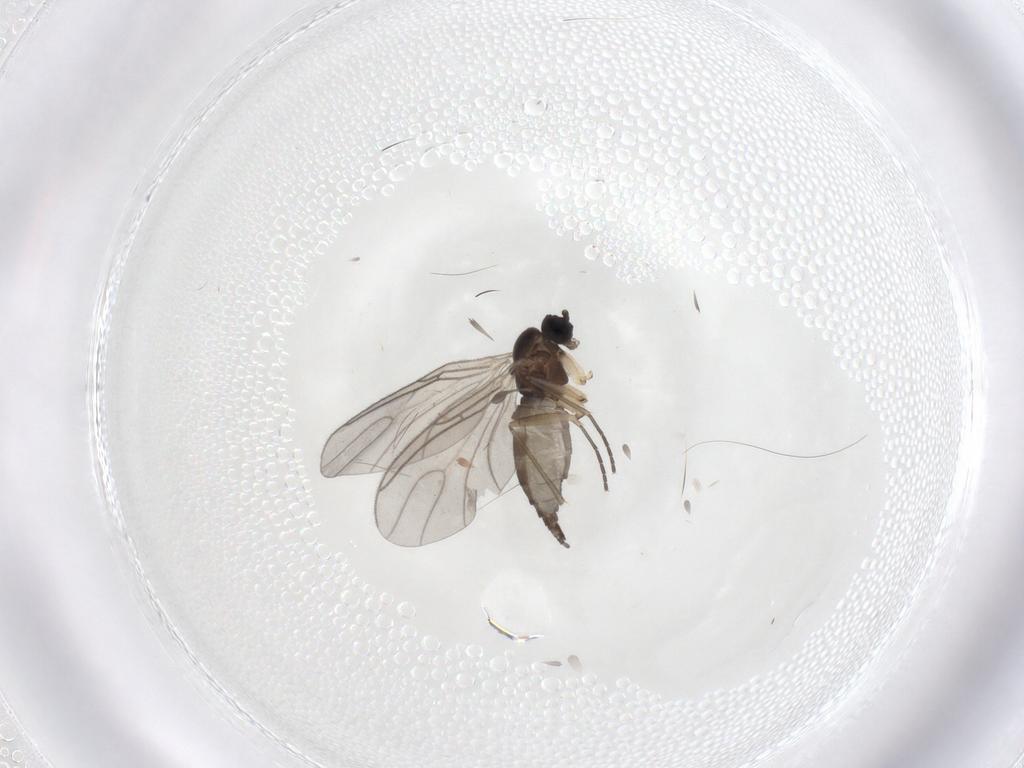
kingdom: Animalia
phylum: Arthropoda
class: Insecta
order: Diptera
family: Sciaridae
